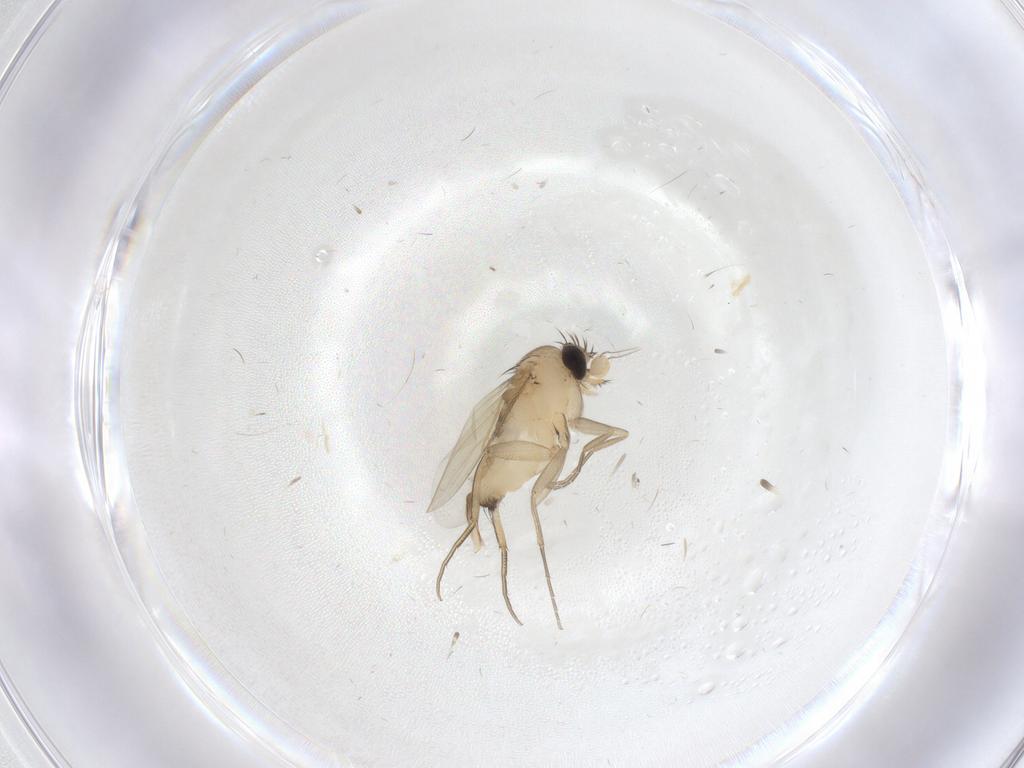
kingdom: Animalia
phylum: Arthropoda
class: Insecta
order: Diptera
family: Phoridae
